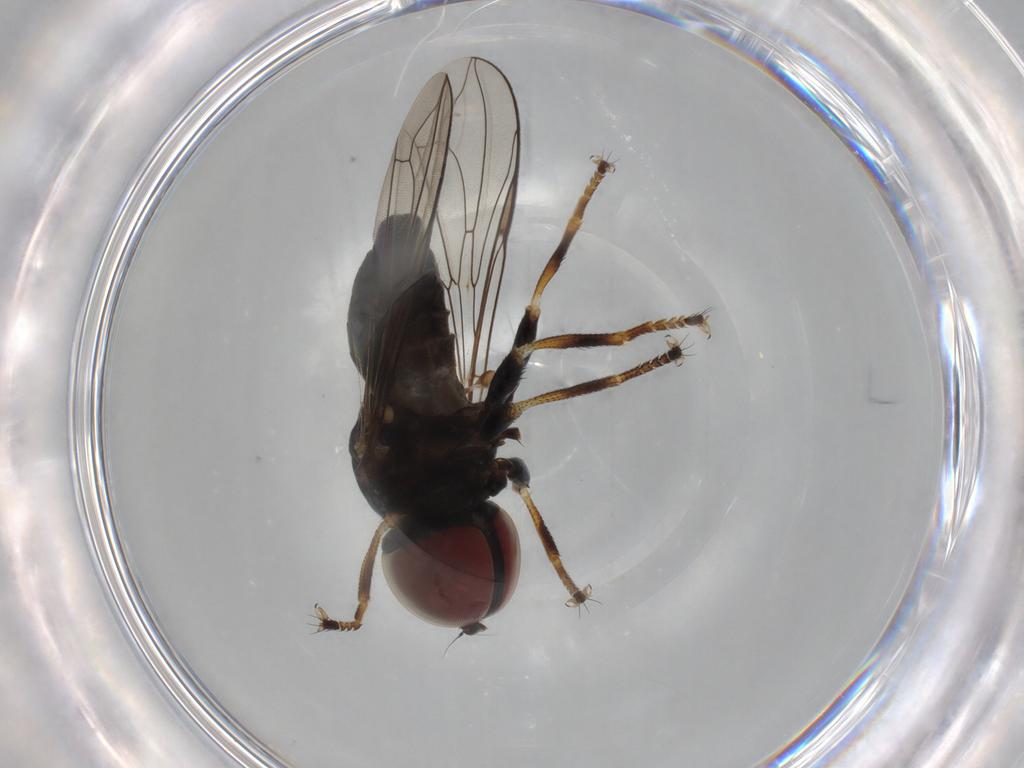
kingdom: Animalia
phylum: Arthropoda
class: Insecta
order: Diptera
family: Pipunculidae
